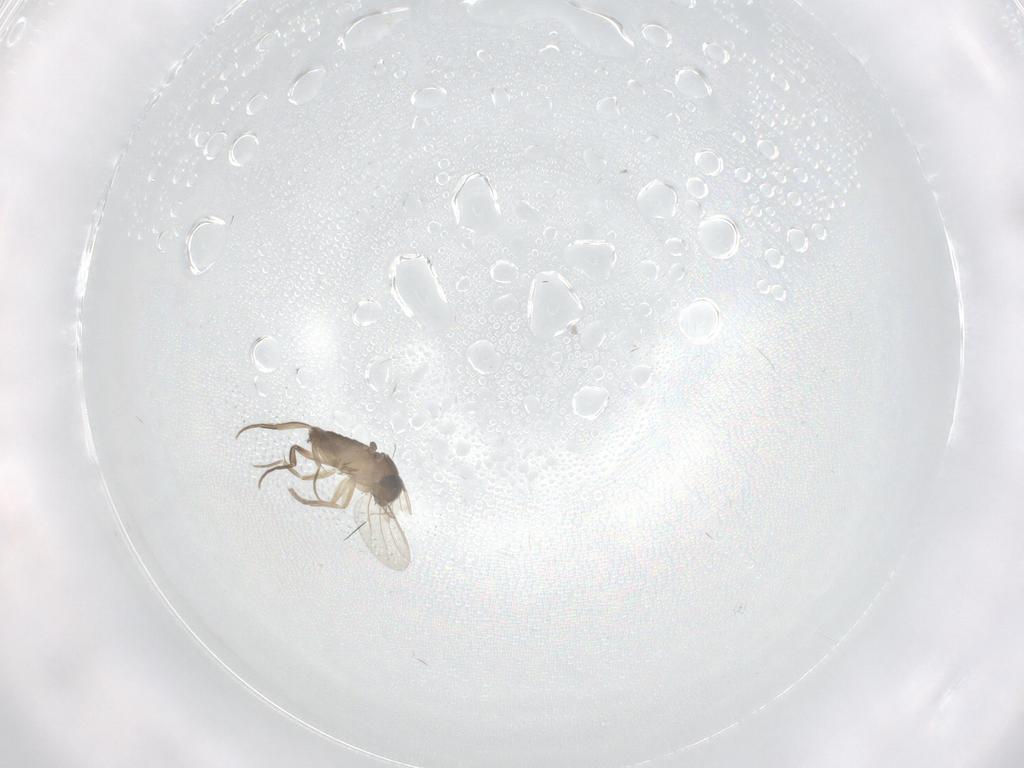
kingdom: Animalia
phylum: Arthropoda
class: Insecta
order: Diptera
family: Phoridae
